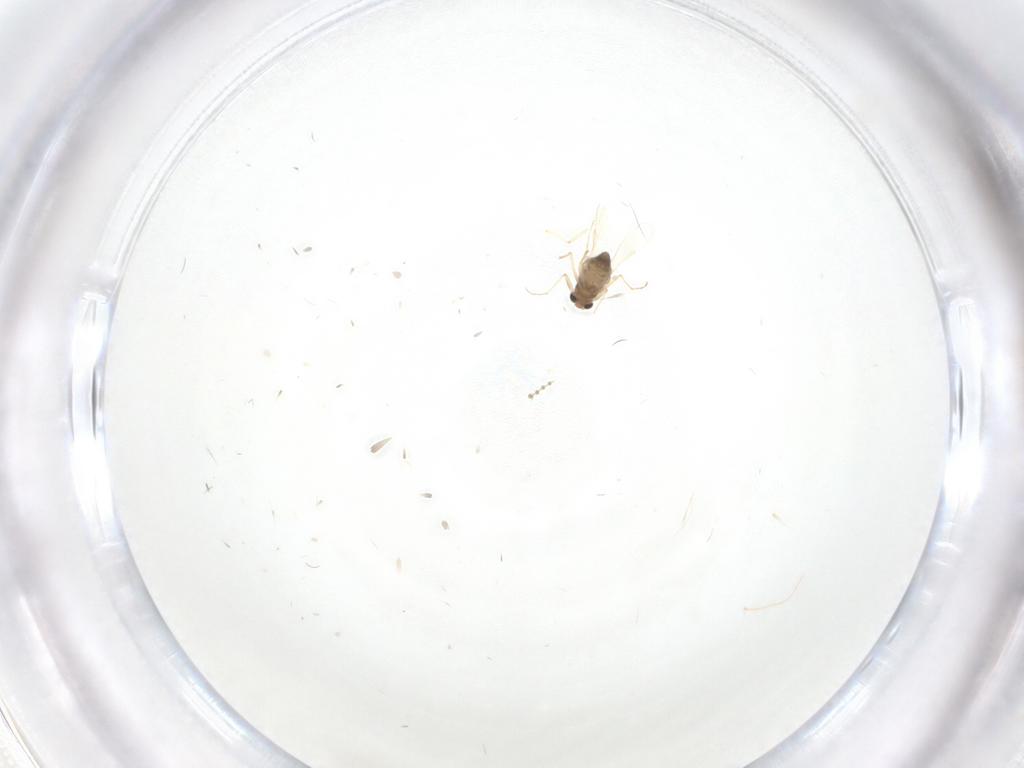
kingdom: Animalia
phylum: Arthropoda
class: Insecta
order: Diptera
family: Chironomidae
